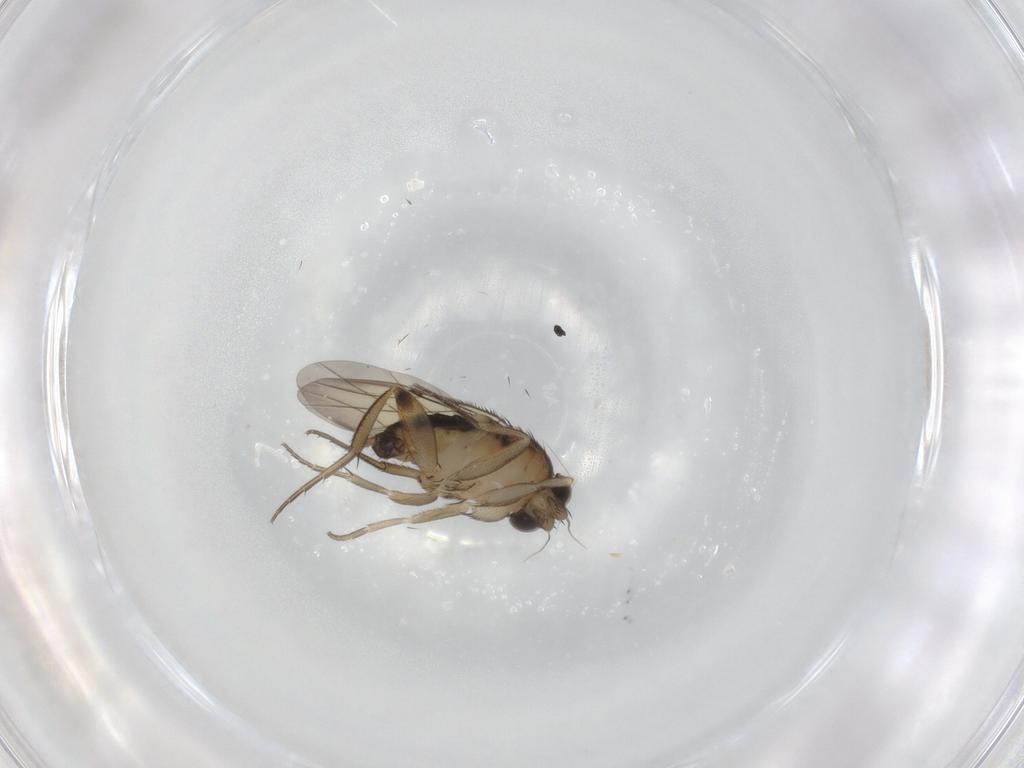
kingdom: Animalia
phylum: Arthropoda
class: Insecta
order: Diptera
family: Phoridae
